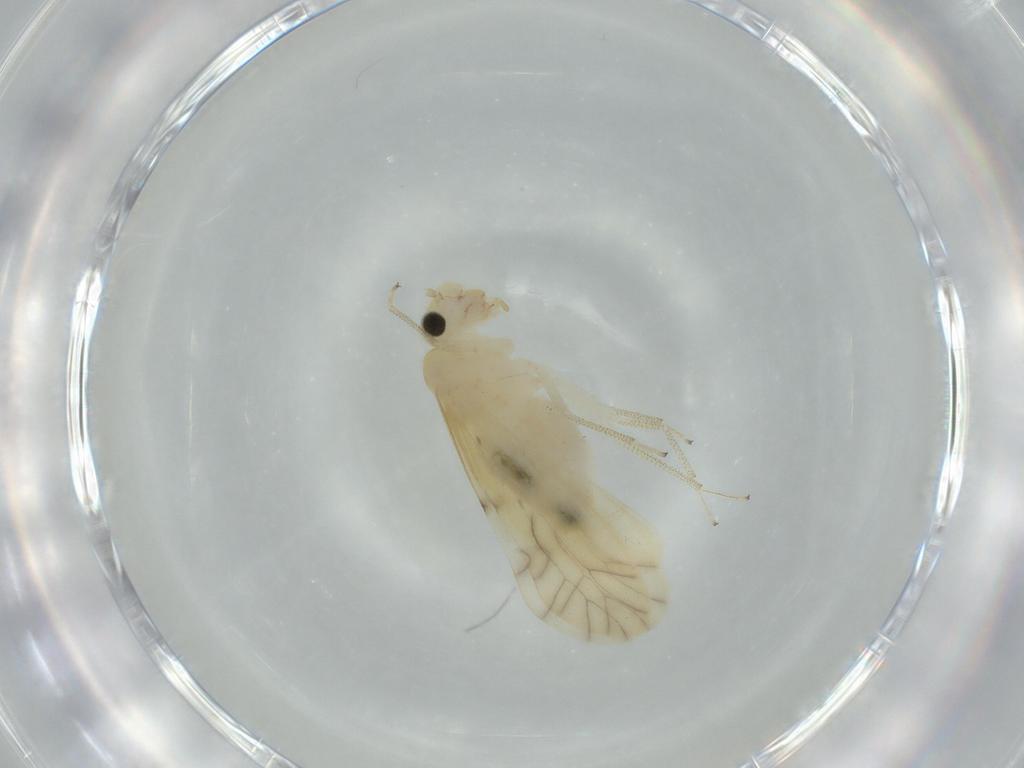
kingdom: Animalia
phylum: Arthropoda
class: Insecta
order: Psocodea
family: Caeciliusidae
